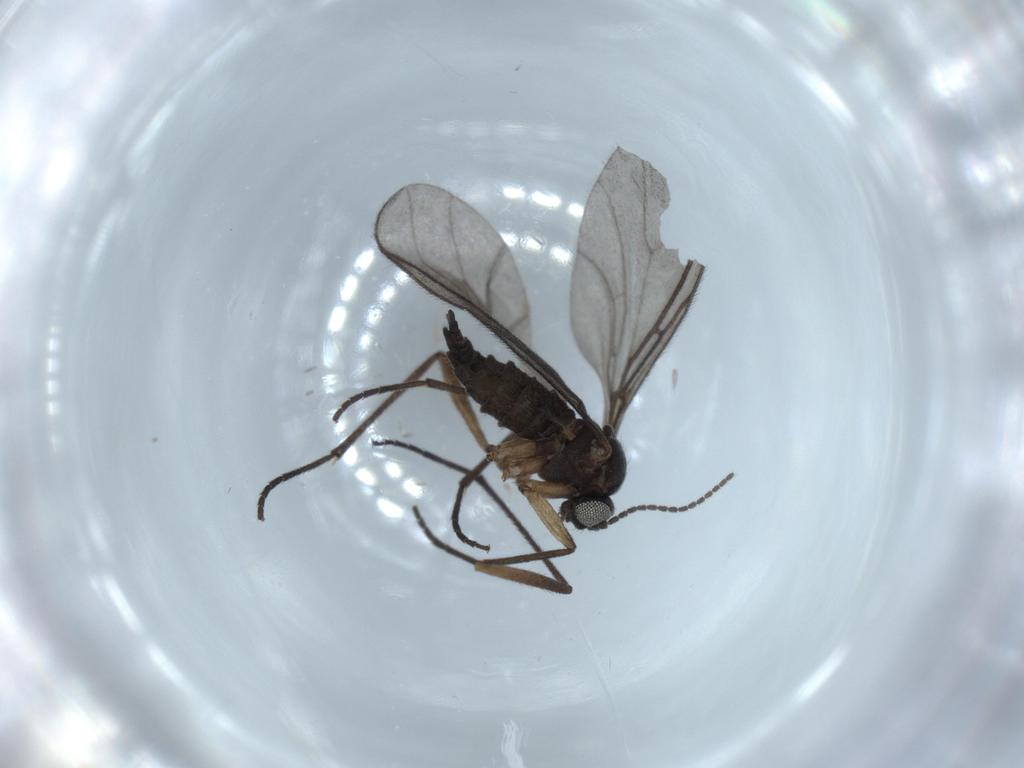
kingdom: Animalia
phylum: Arthropoda
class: Insecta
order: Diptera
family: Sciaridae
